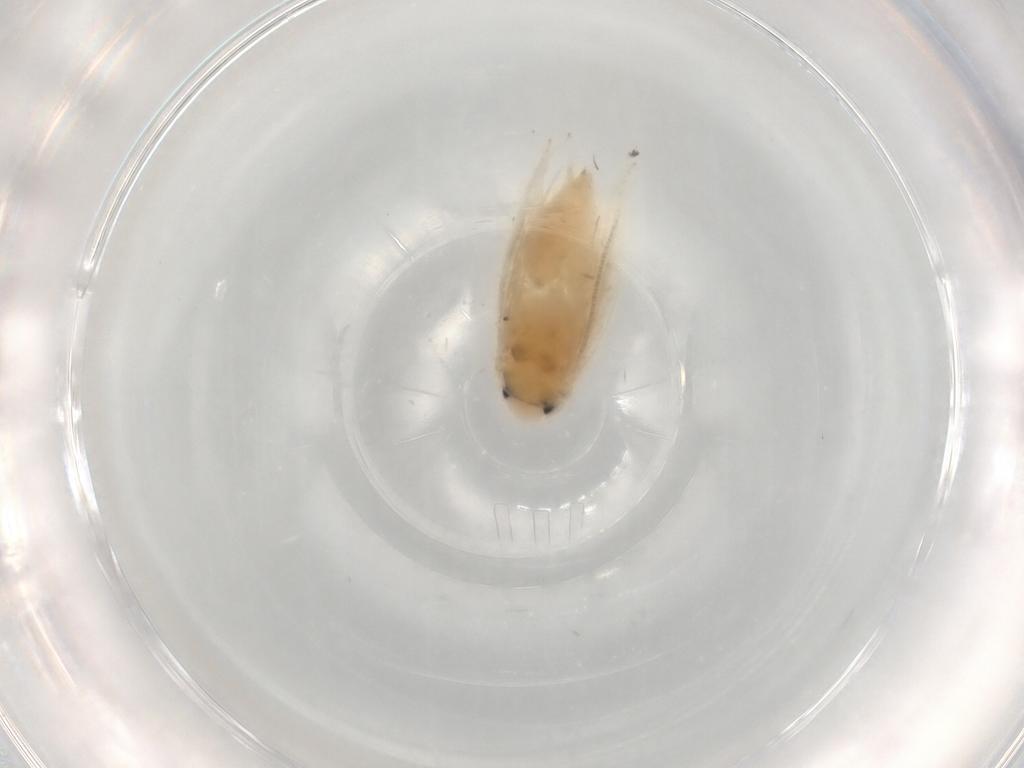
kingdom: Animalia
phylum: Arthropoda
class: Insecta
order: Lepidoptera
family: Gracillariidae
